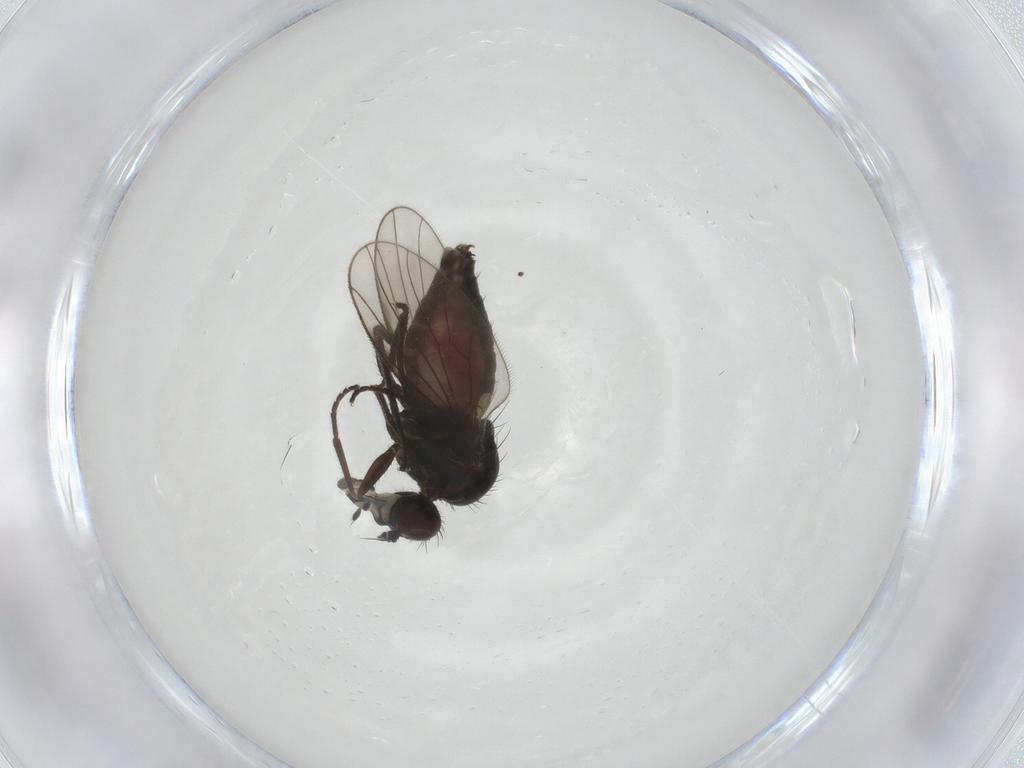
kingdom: Animalia
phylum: Arthropoda
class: Insecta
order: Diptera
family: Dolichopodidae
